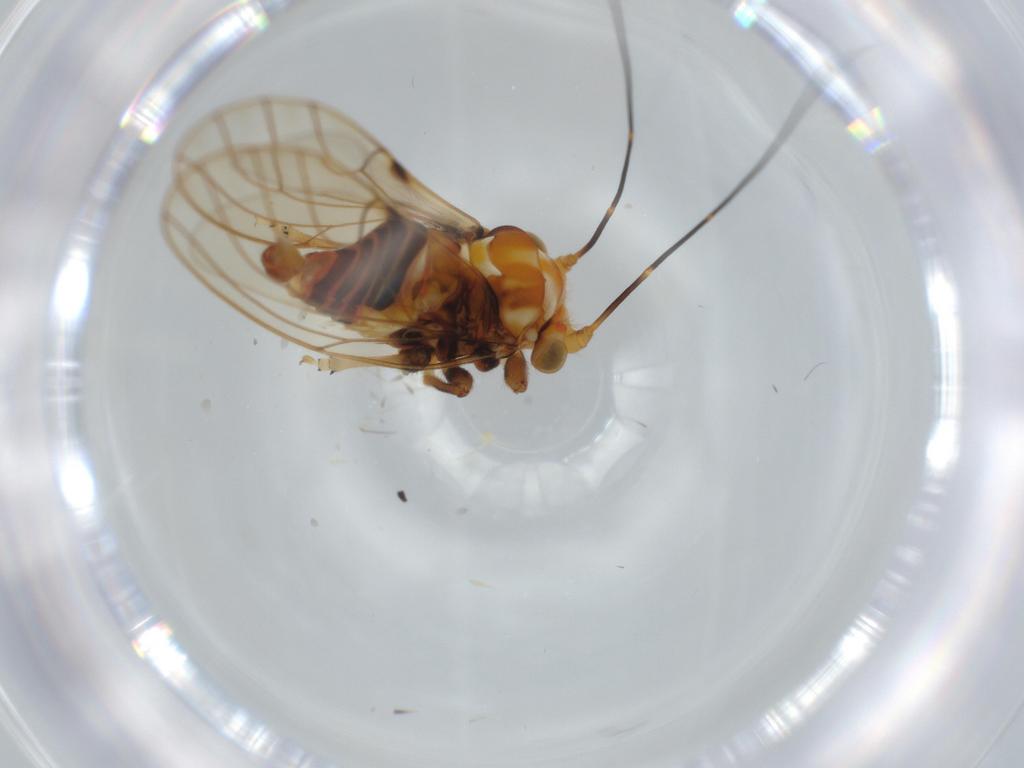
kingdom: Animalia
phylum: Arthropoda
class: Insecta
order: Hemiptera
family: Psyllidae
